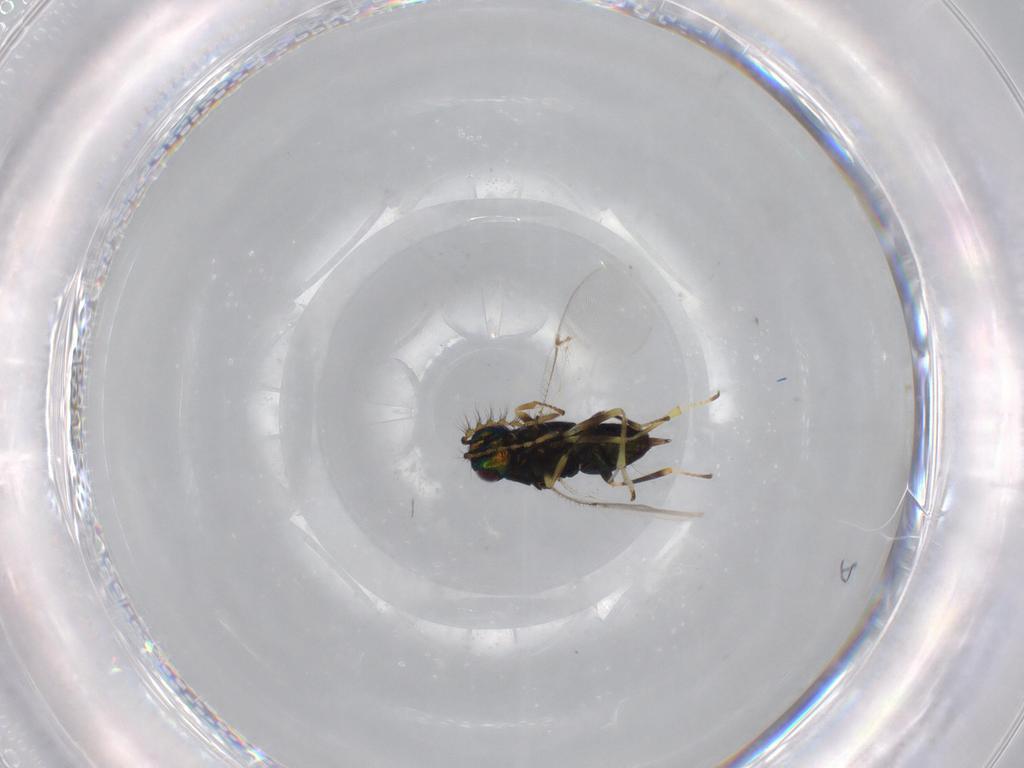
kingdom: Animalia
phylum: Arthropoda
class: Insecta
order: Hymenoptera
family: Encyrtidae
